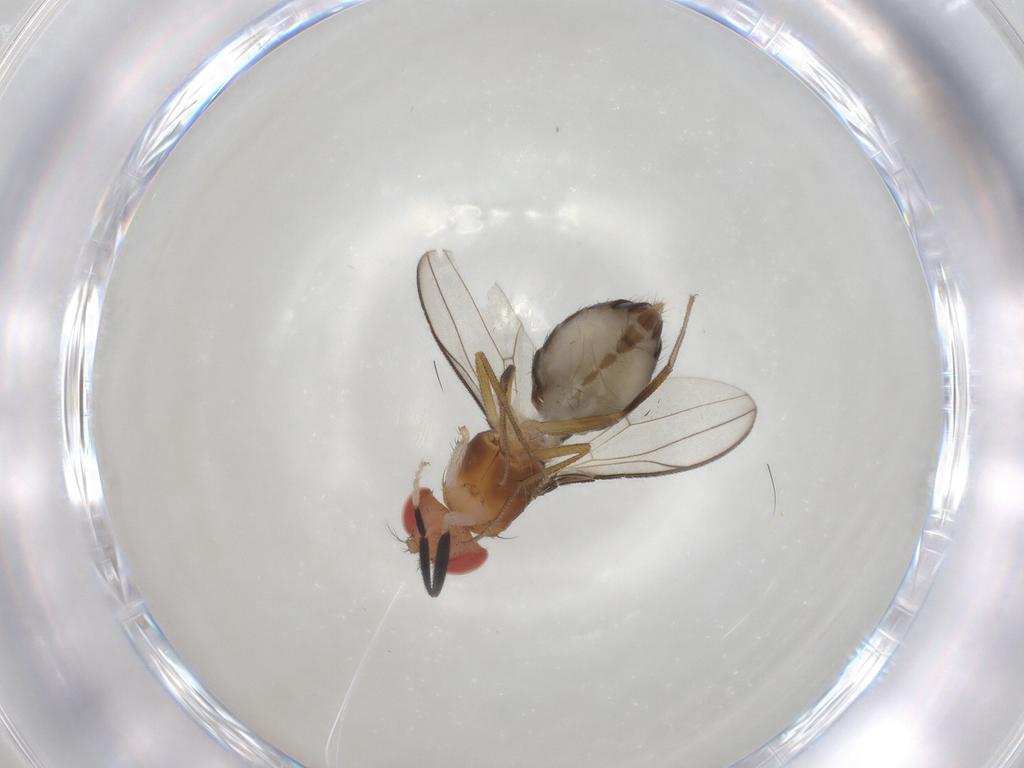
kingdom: Animalia
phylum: Arthropoda
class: Insecta
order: Diptera
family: Drosophilidae
